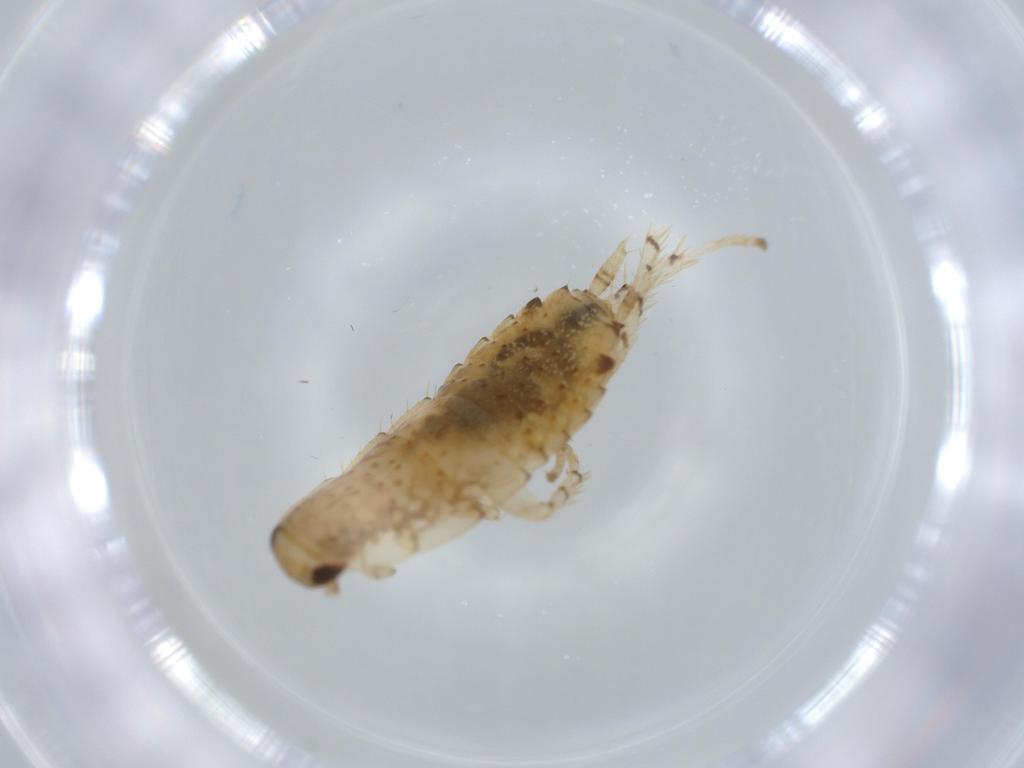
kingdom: Animalia
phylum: Arthropoda
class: Insecta
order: Blattodea
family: Ectobiidae
